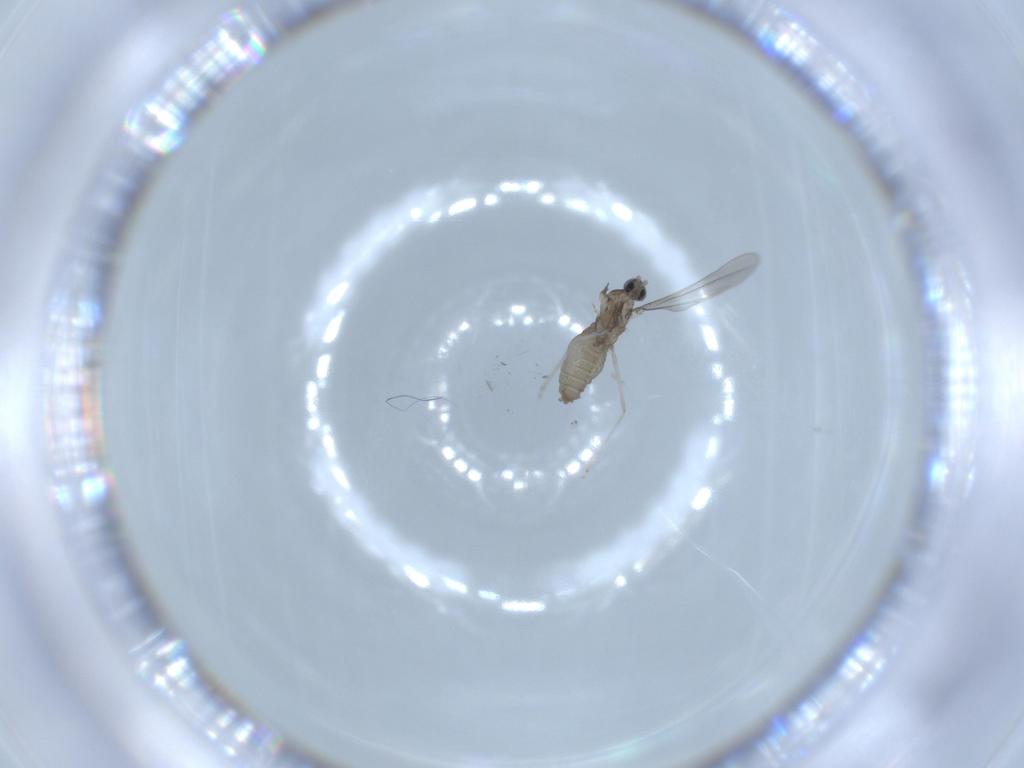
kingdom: Animalia
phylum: Arthropoda
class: Insecta
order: Diptera
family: Cecidomyiidae
